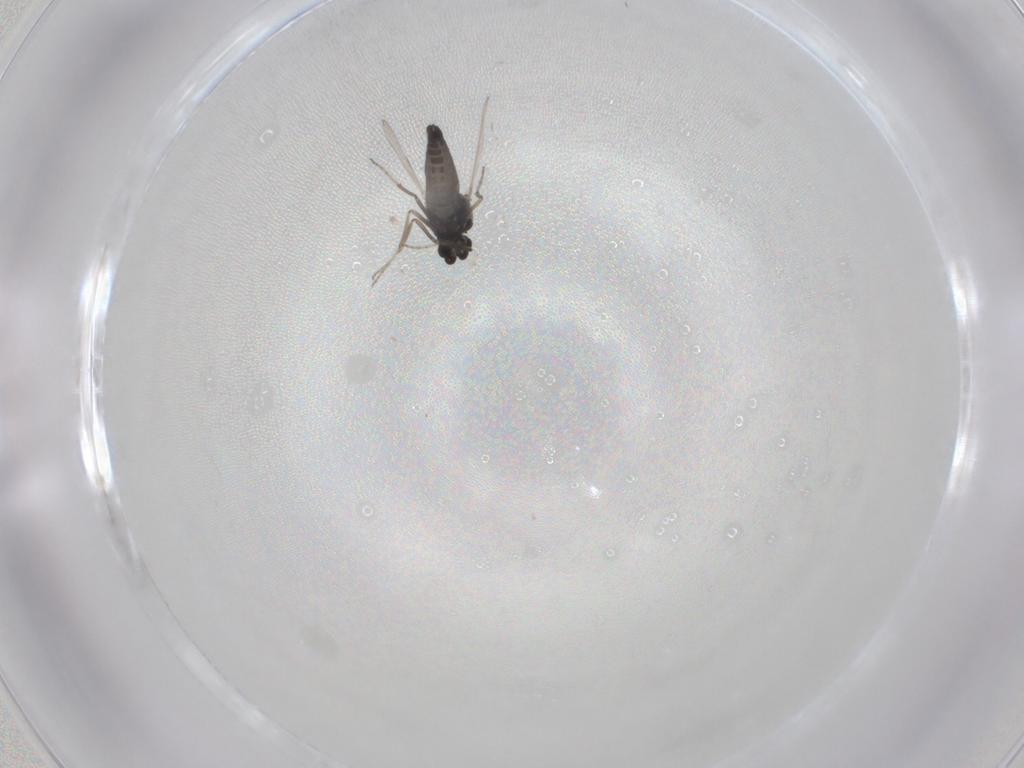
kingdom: Animalia
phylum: Arthropoda
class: Insecta
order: Diptera
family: Ceratopogonidae
